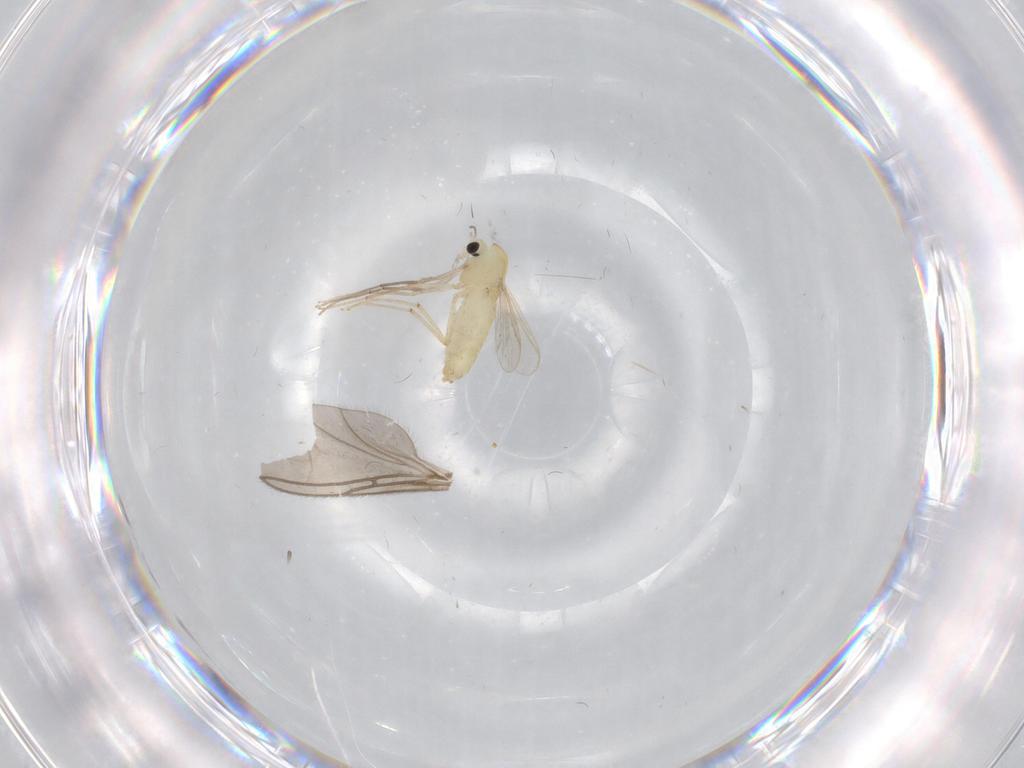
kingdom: Animalia
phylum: Arthropoda
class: Insecta
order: Diptera
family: Chironomidae
